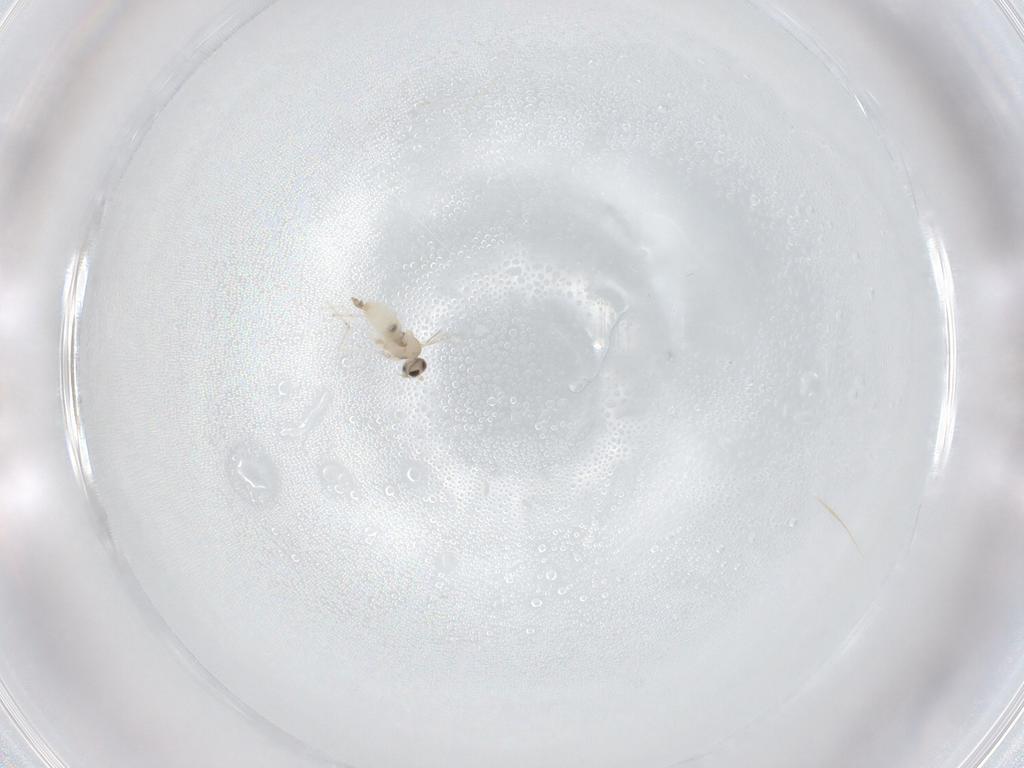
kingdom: Animalia
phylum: Arthropoda
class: Insecta
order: Diptera
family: Cecidomyiidae
